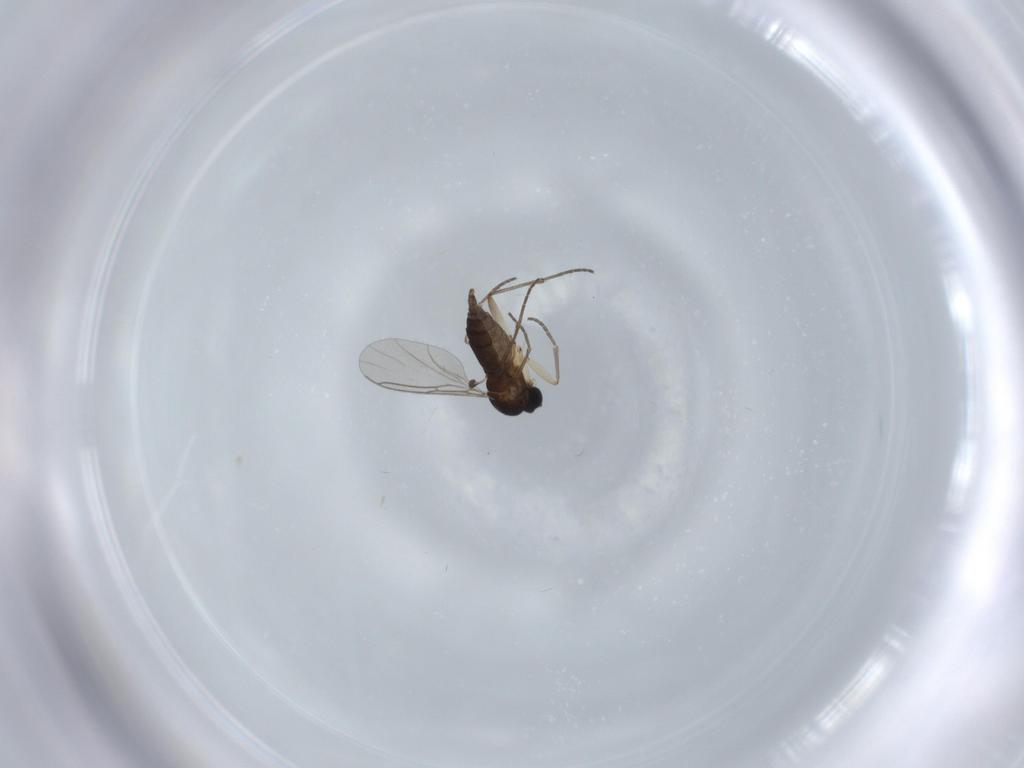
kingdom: Animalia
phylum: Arthropoda
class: Insecta
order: Diptera
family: Sciaridae
